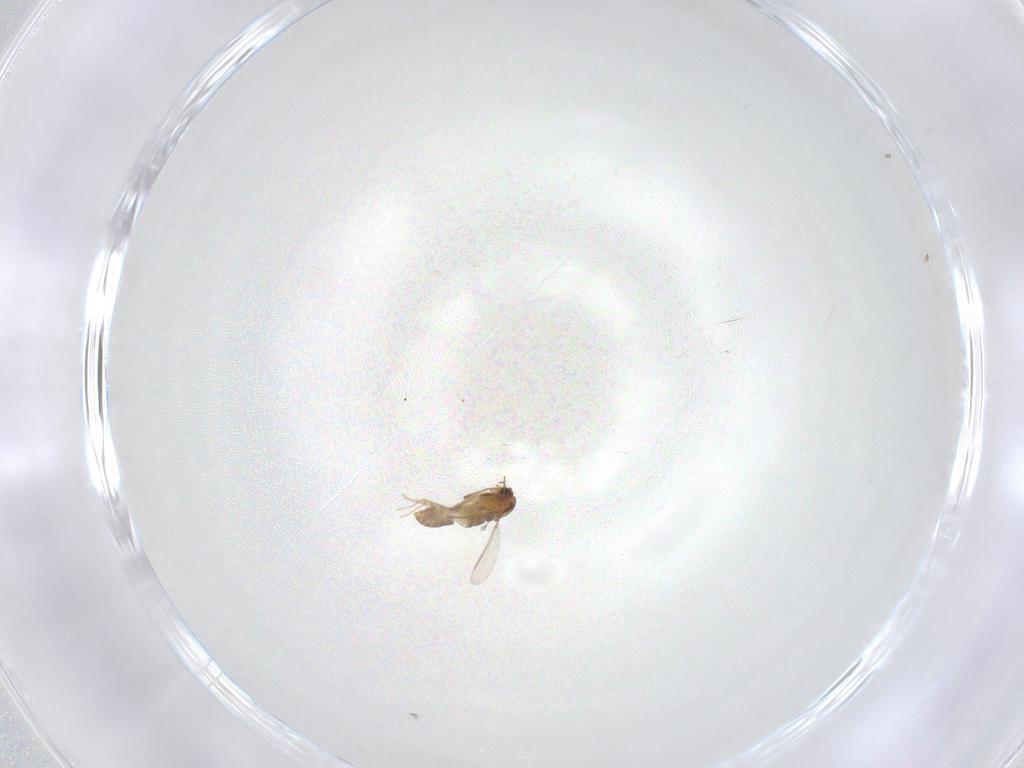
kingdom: Animalia
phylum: Arthropoda
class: Insecta
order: Diptera
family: Chironomidae
